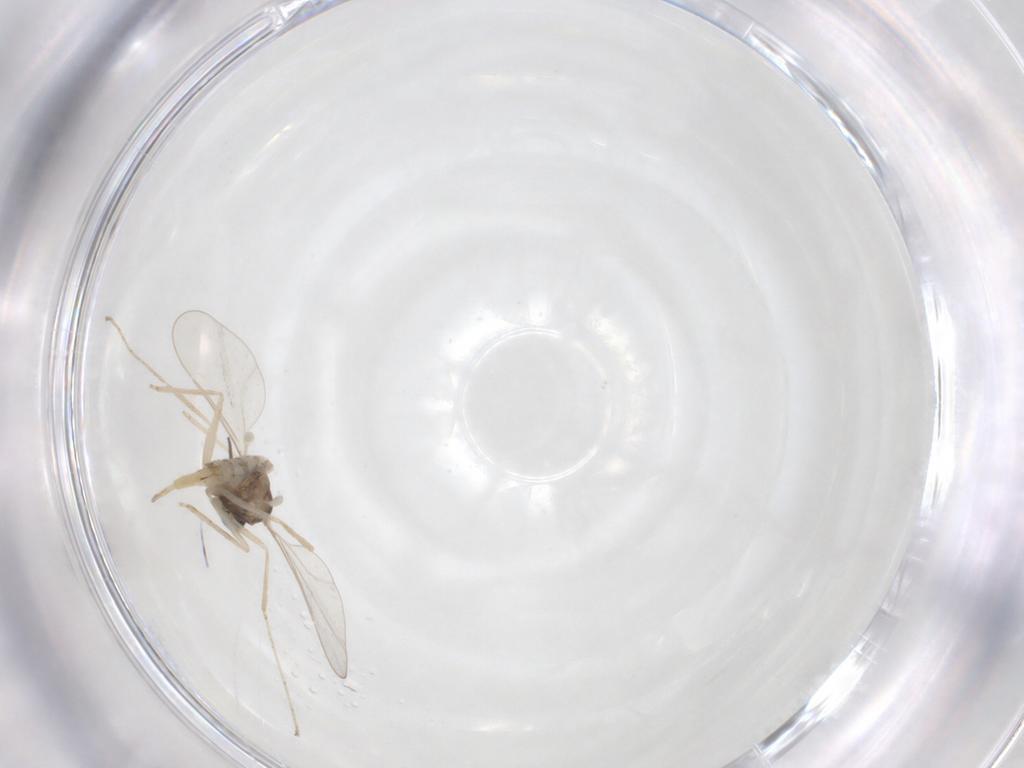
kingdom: Animalia
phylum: Arthropoda
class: Insecta
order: Diptera
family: Cecidomyiidae
